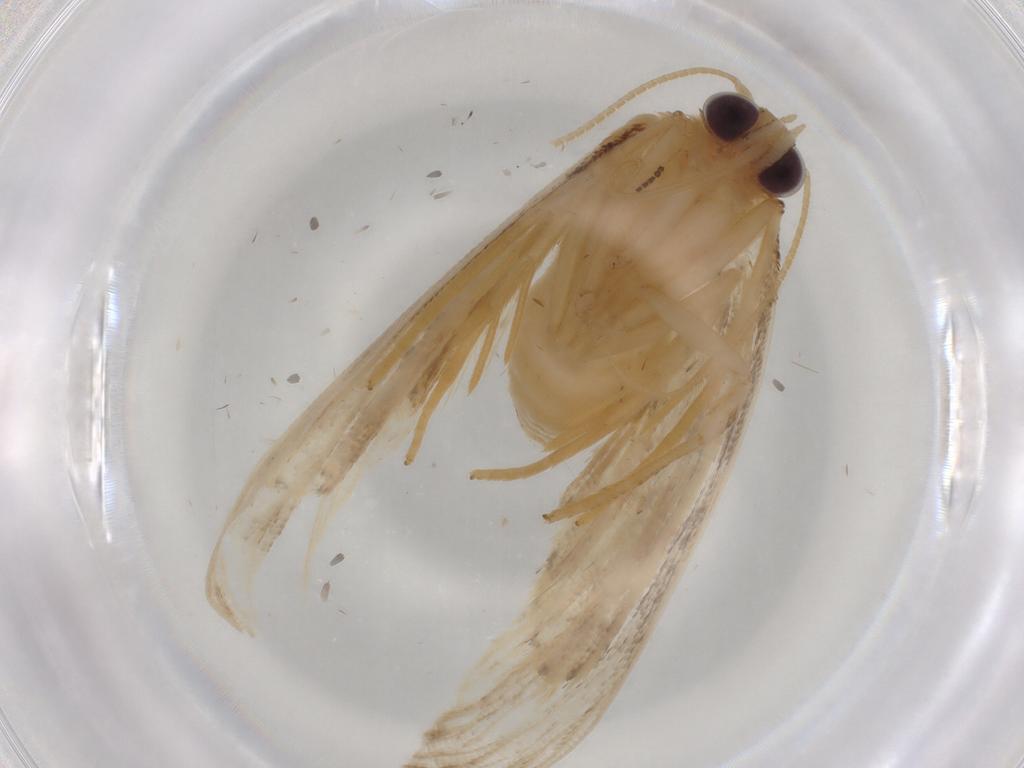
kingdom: Animalia
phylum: Arthropoda
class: Insecta
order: Lepidoptera
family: Erebidae
